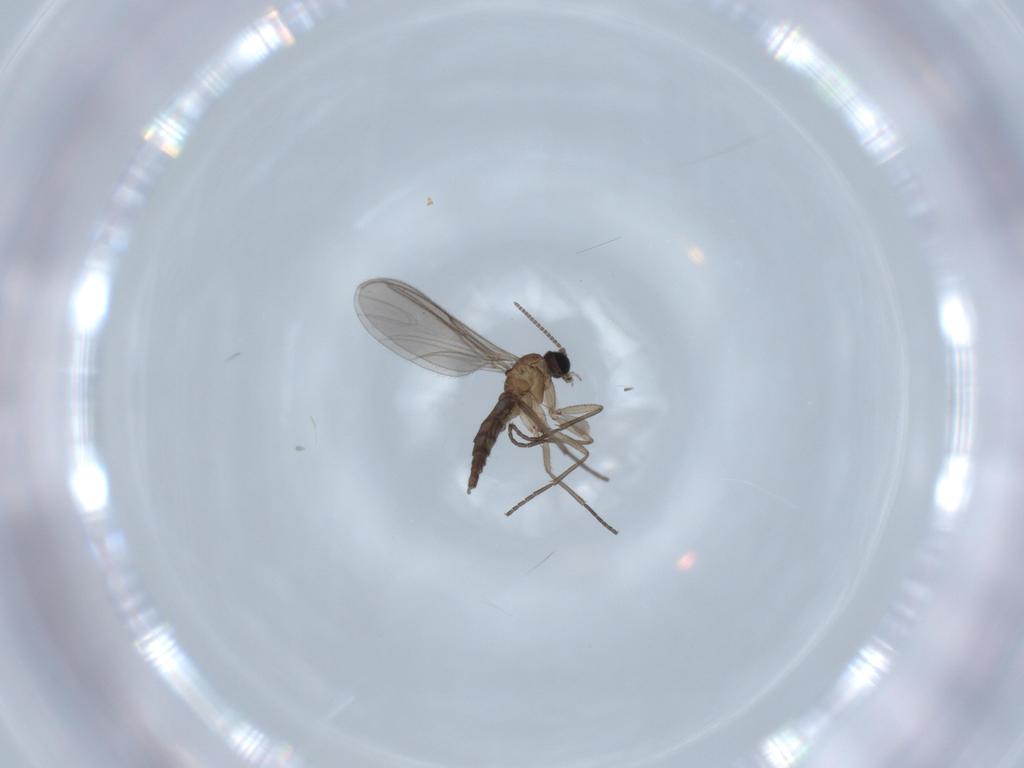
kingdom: Animalia
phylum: Arthropoda
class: Insecta
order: Diptera
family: Sciaridae
